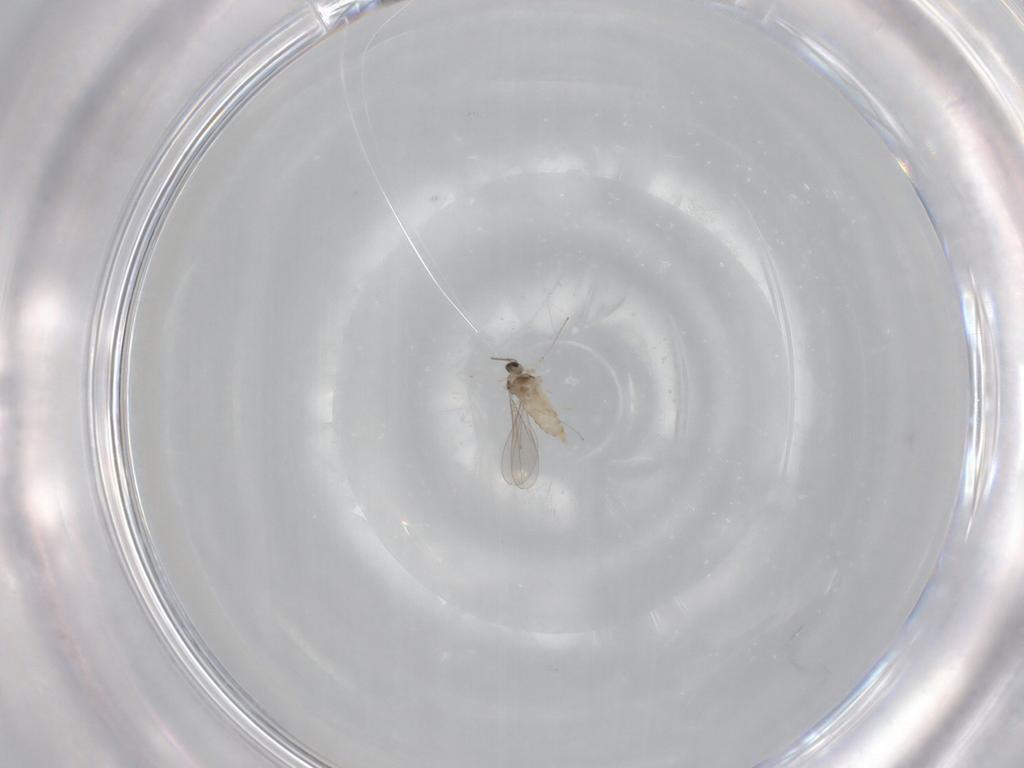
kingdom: Animalia
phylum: Arthropoda
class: Insecta
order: Diptera
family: Cecidomyiidae
